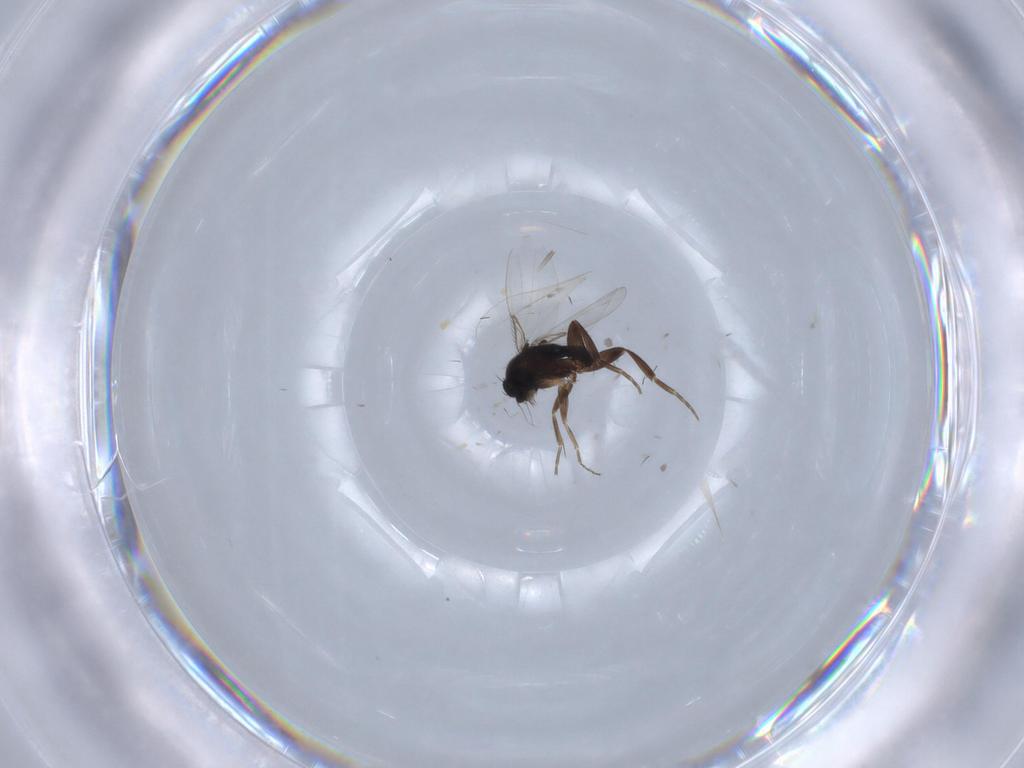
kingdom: Animalia
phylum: Arthropoda
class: Insecta
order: Diptera
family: Phoridae
